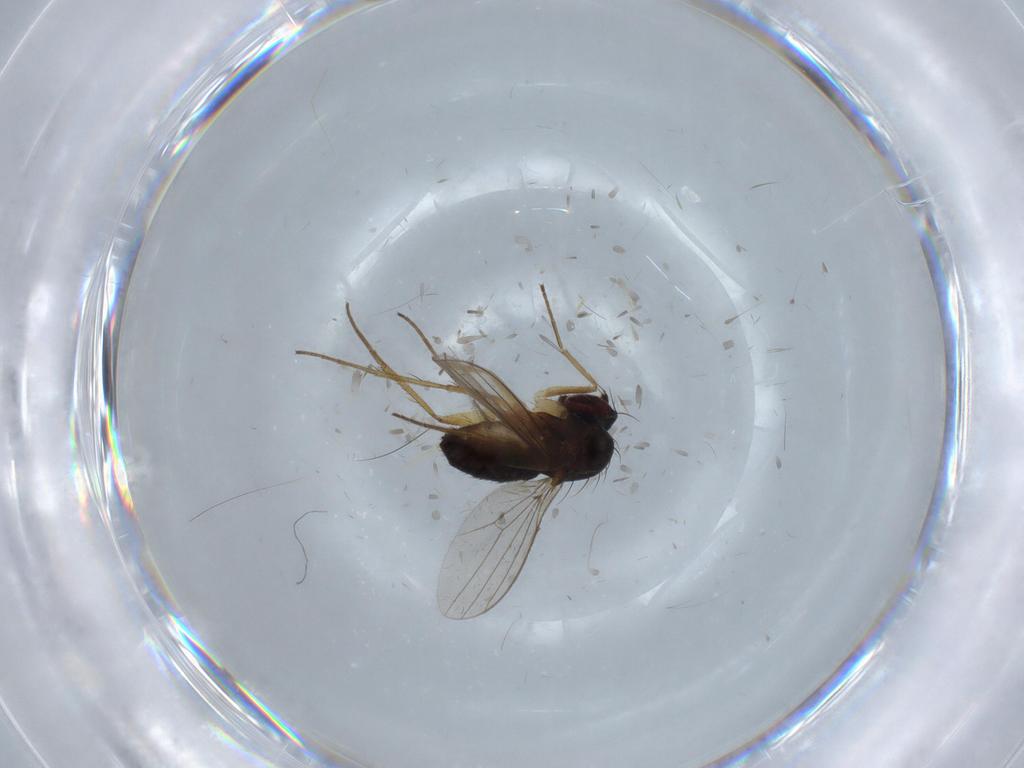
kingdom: Animalia
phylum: Arthropoda
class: Insecta
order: Diptera
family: Dolichopodidae
